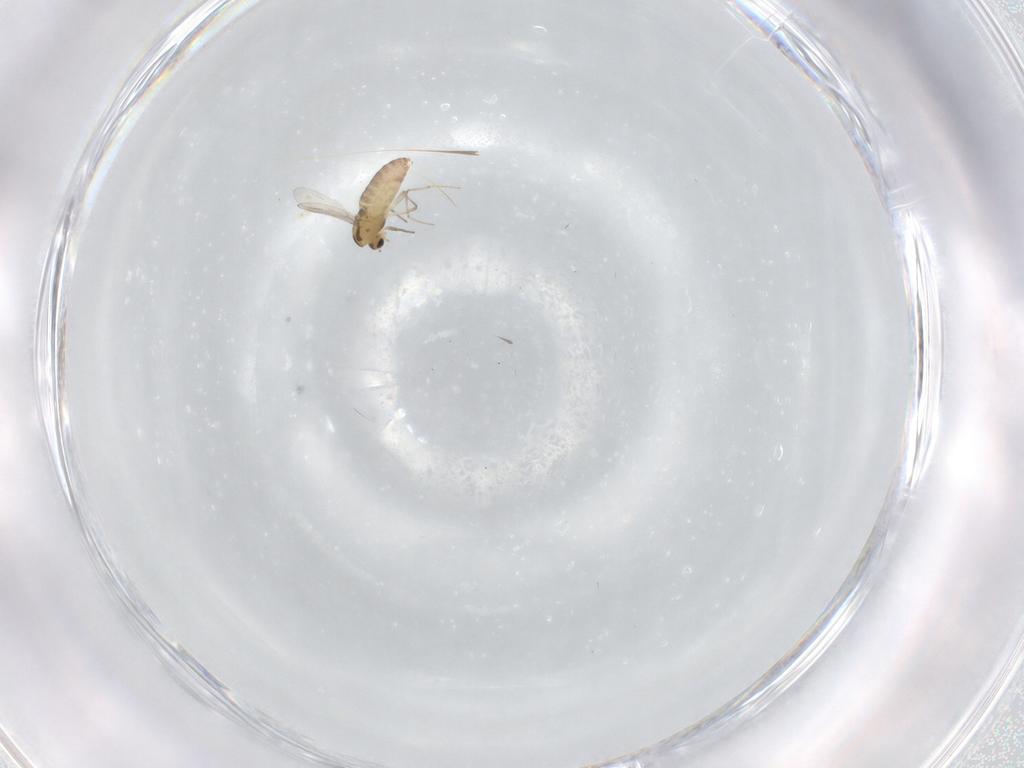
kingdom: Animalia
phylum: Arthropoda
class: Insecta
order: Diptera
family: Chironomidae
